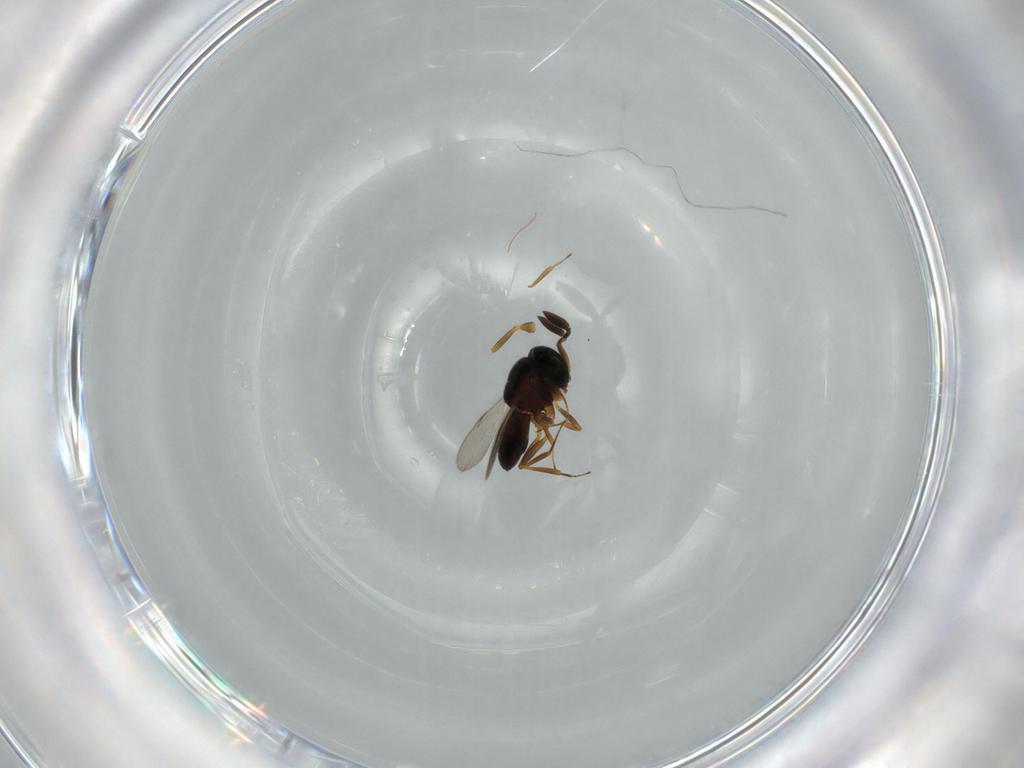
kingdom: Animalia
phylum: Arthropoda
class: Insecta
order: Coleoptera
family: Curculionidae
